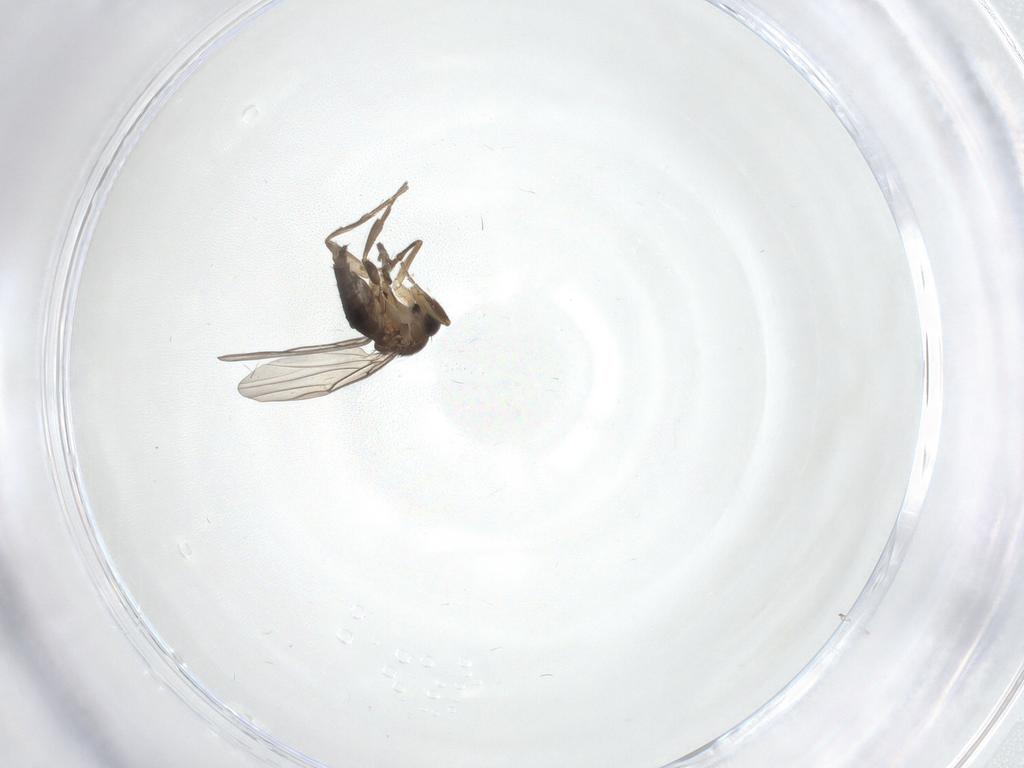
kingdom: Animalia
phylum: Arthropoda
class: Insecta
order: Diptera
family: Phoridae
